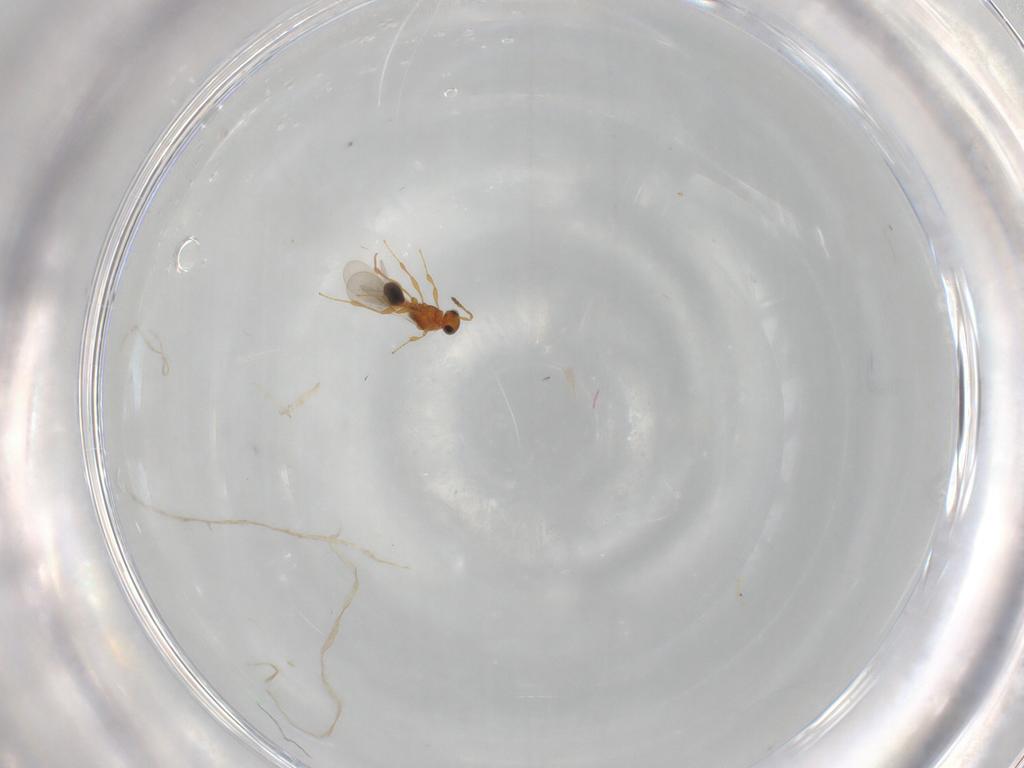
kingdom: Animalia
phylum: Arthropoda
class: Insecta
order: Hymenoptera
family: Platygastridae
